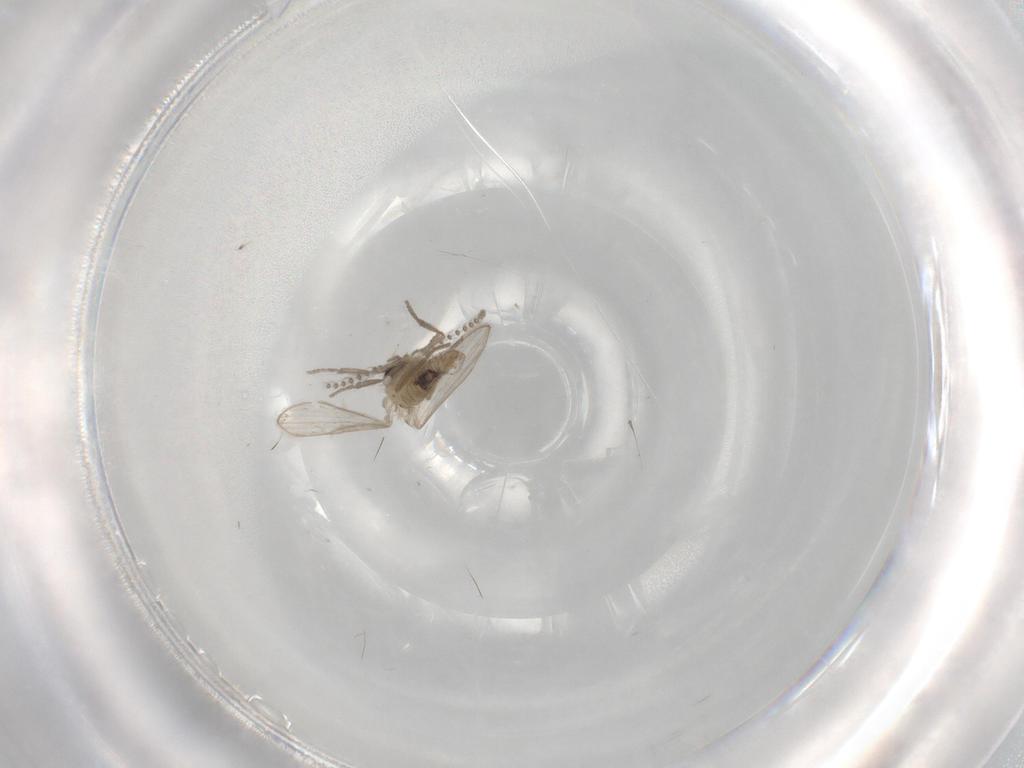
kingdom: Animalia
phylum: Arthropoda
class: Insecta
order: Diptera
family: Psychodidae
